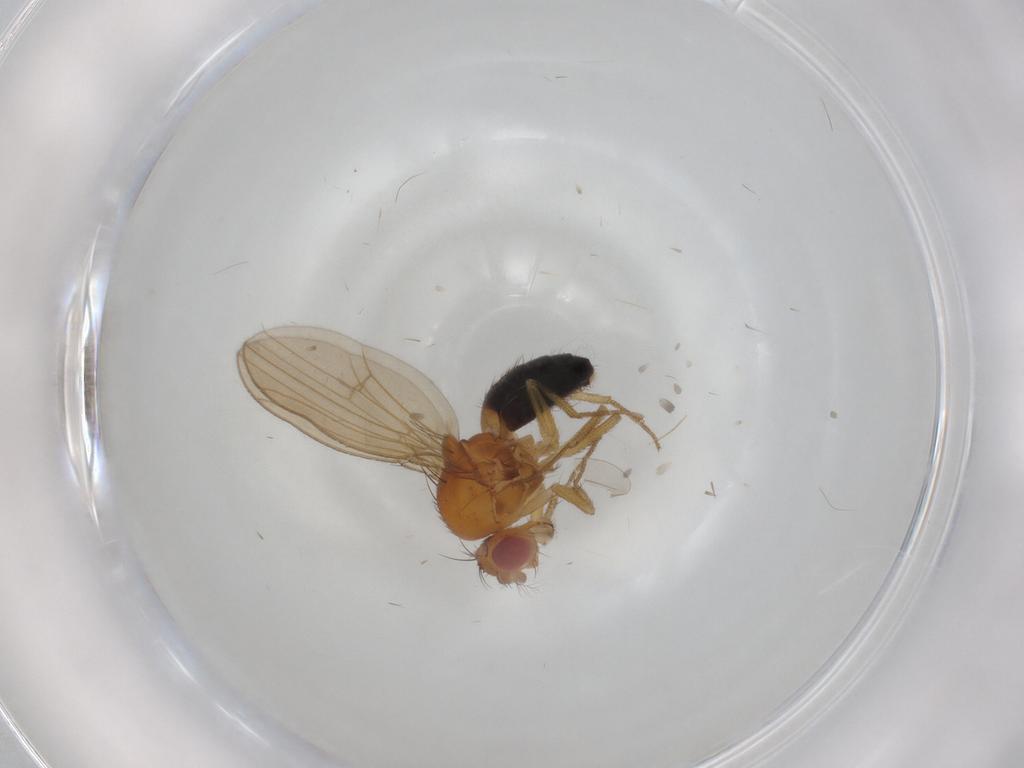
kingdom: Animalia
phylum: Arthropoda
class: Insecta
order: Diptera
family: Drosophilidae
